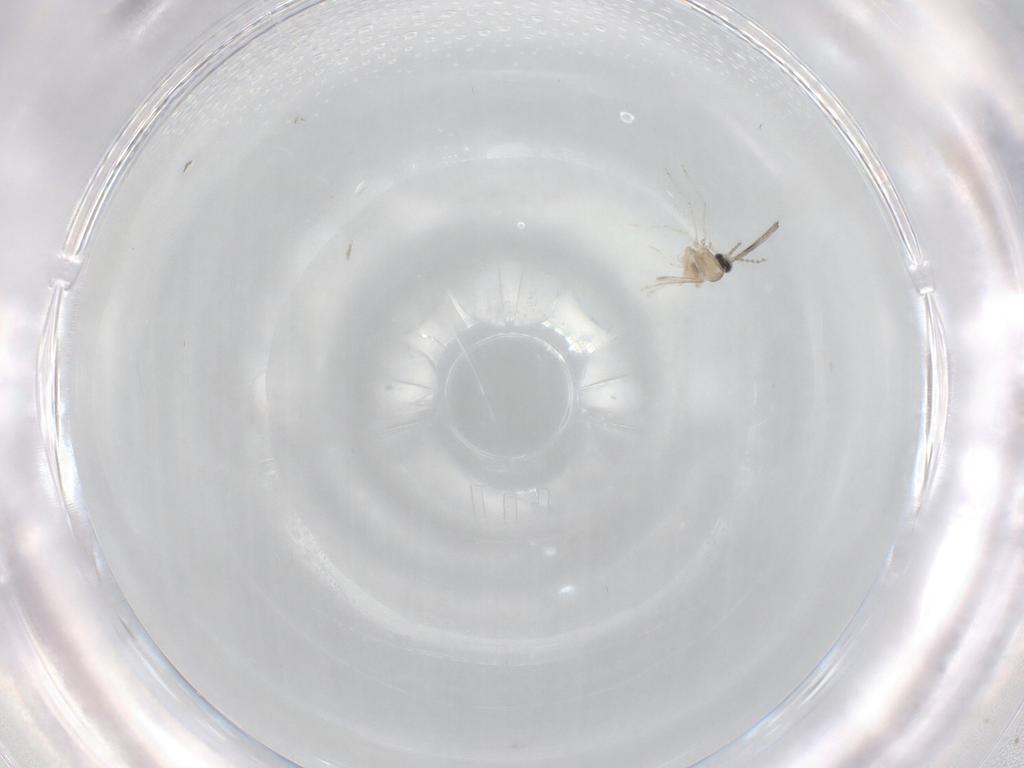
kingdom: Animalia
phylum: Arthropoda
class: Insecta
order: Diptera
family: Cecidomyiidae
